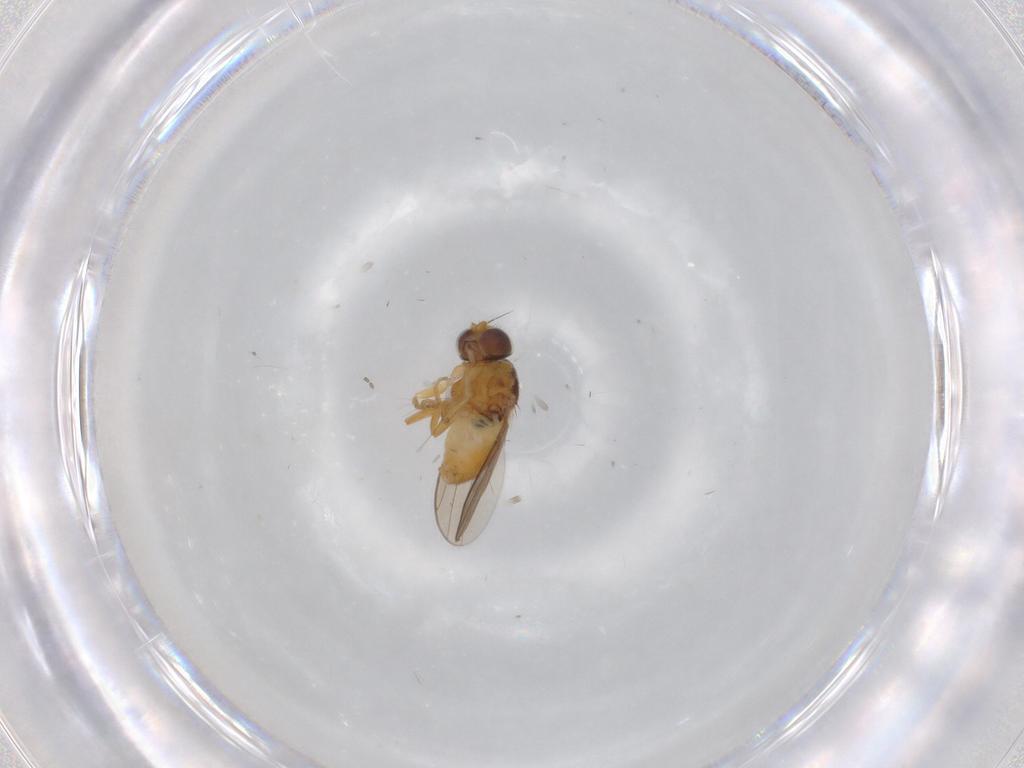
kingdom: Animalia
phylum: Arthropoda
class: Insecta
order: Diptera
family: Chloropidae
